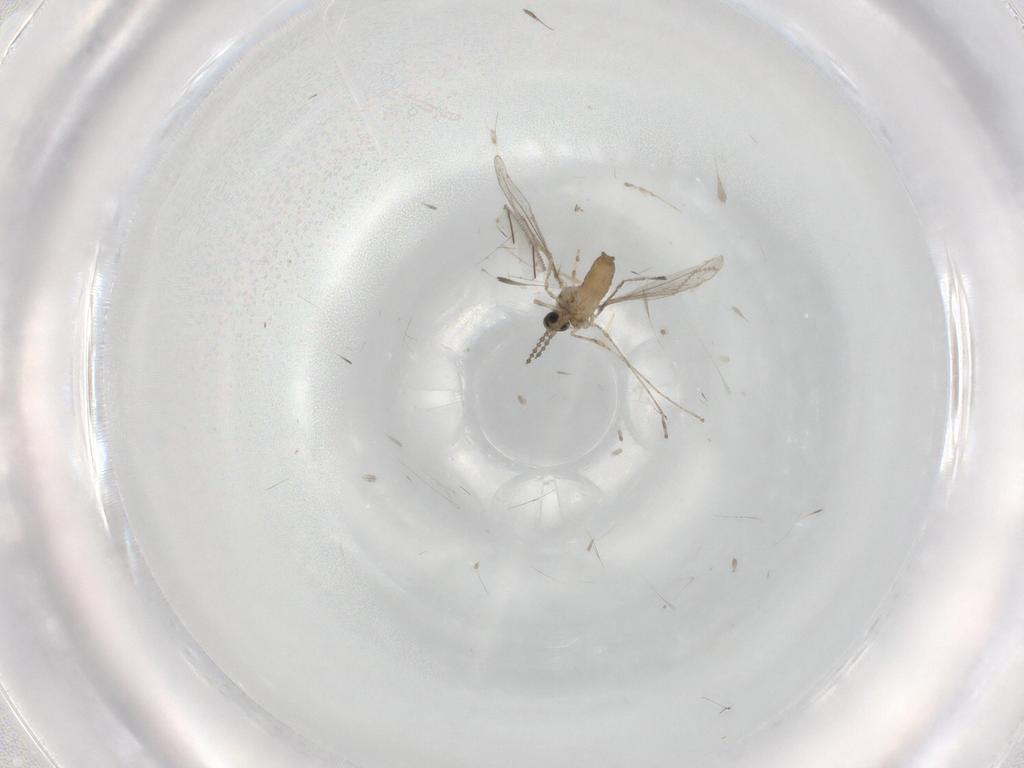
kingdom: Animalia
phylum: Arthropoda
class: Insecta
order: Diptera
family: Cecidomyiidae
